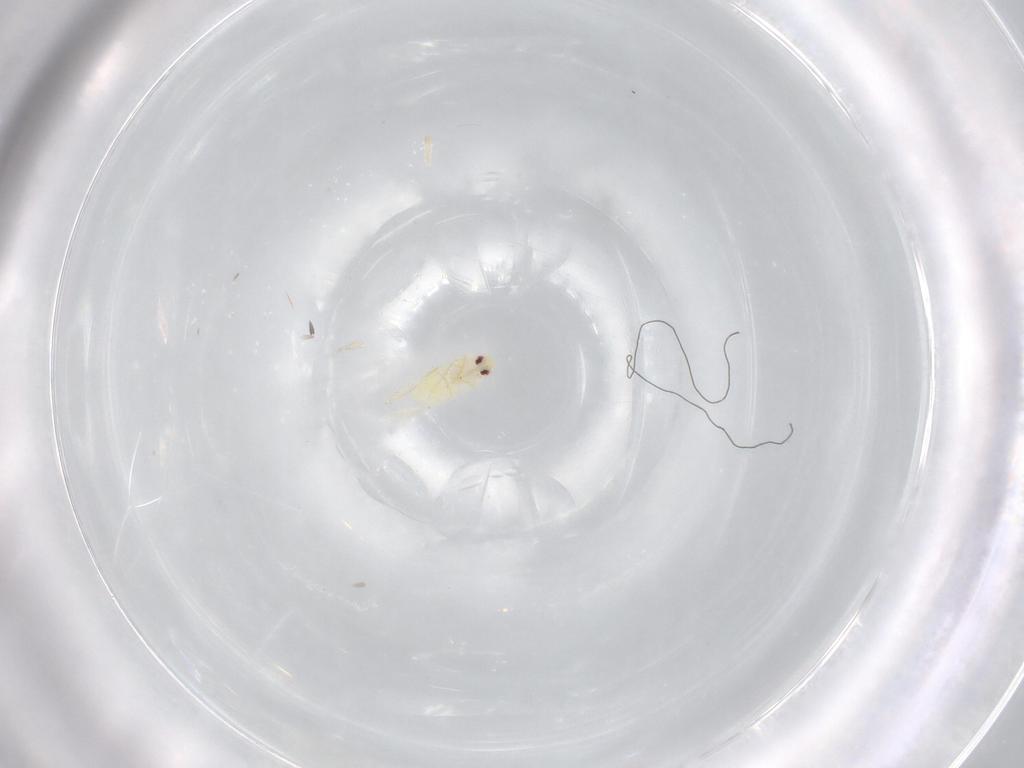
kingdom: Animalia
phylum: Arthropoda
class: Insecta
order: Hemiptera
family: Aleyrodidae
